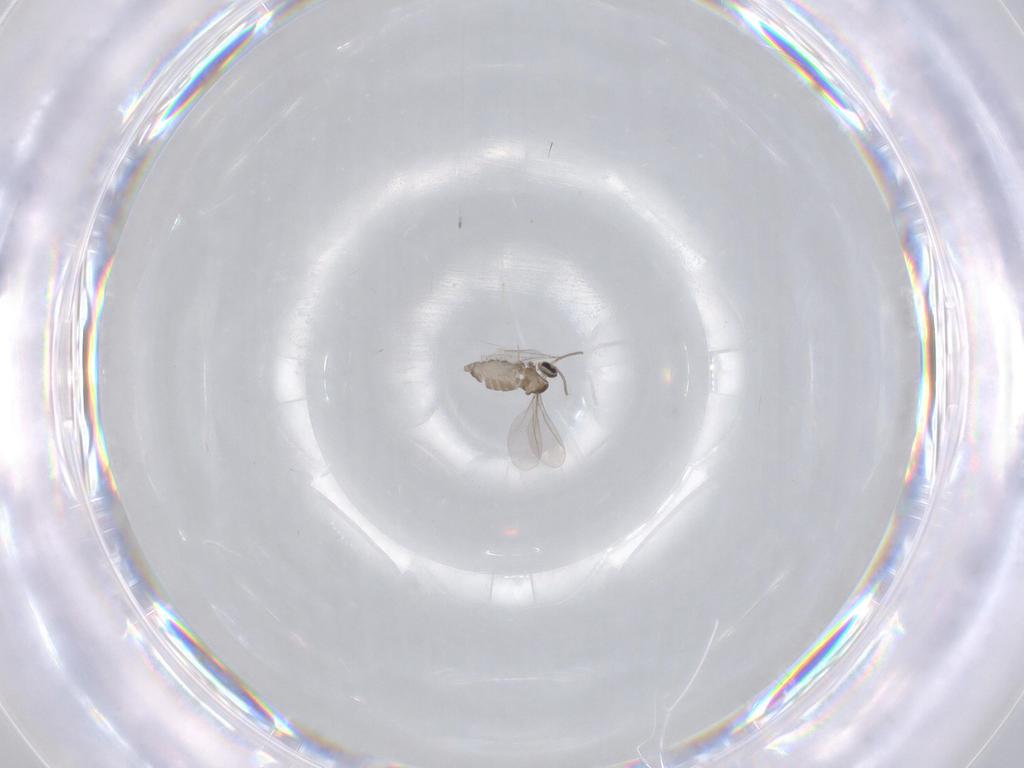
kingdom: Animalia
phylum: Arthropoda
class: Insecta
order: Diptera
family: Cecidomyiidae
